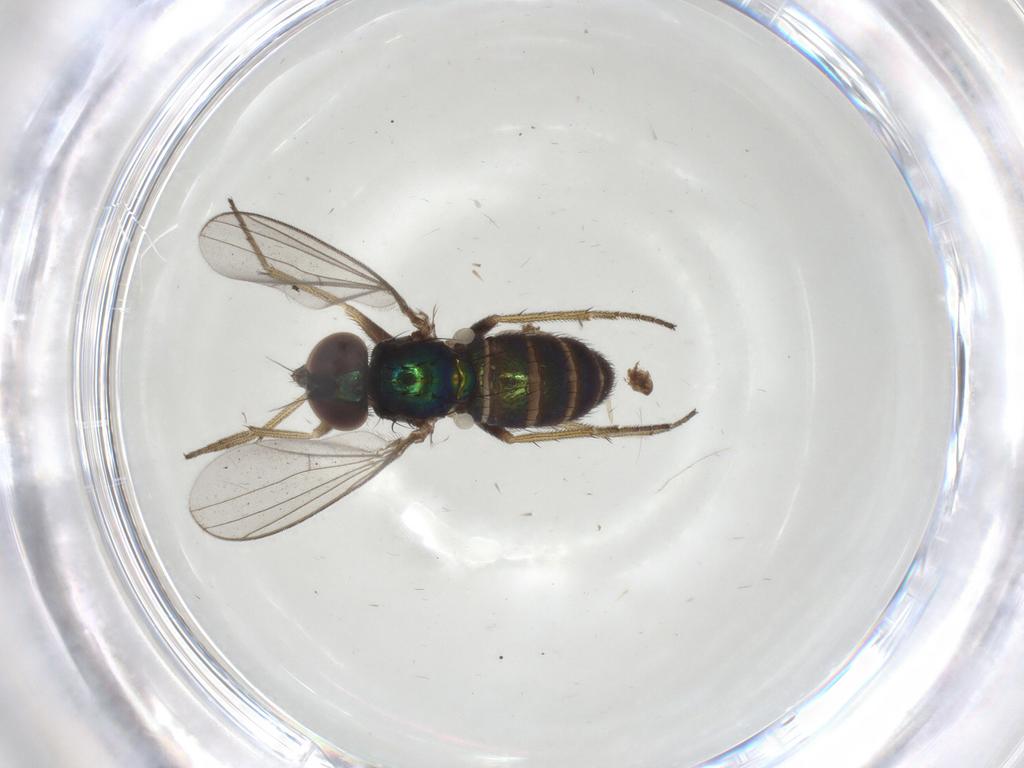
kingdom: Animalia
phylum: Arthropoda
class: Insecta
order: Diptera
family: Dolichopodidae
